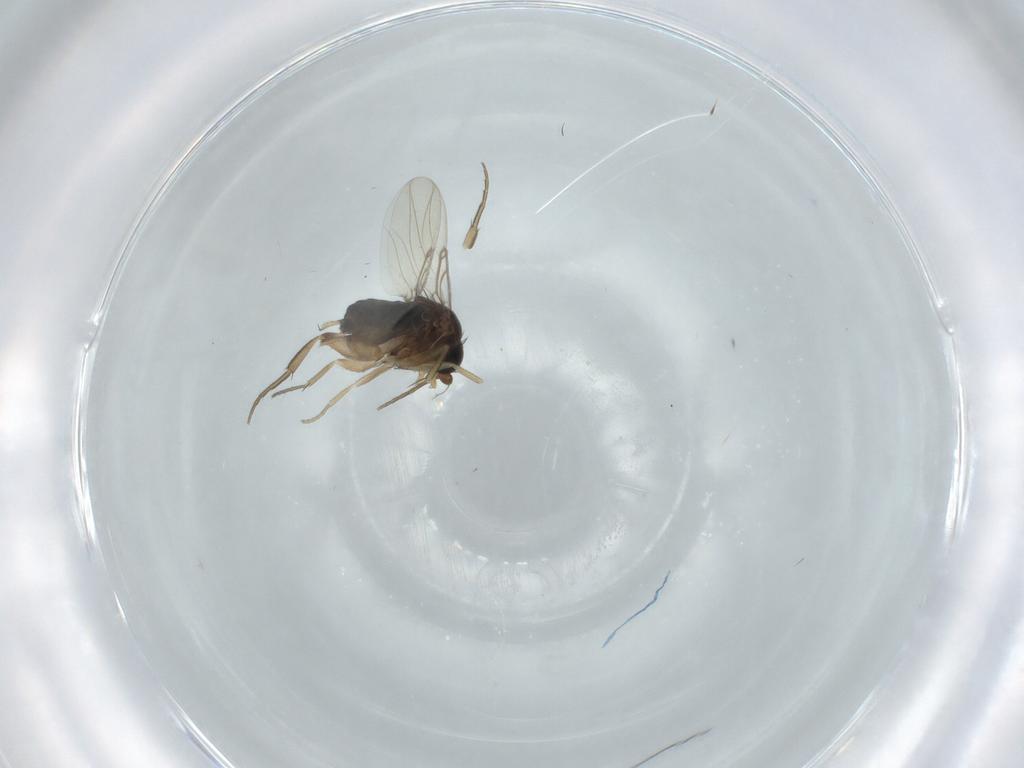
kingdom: Animalia
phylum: Arthropoda
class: Insecta
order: Diptera
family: Phoridae
